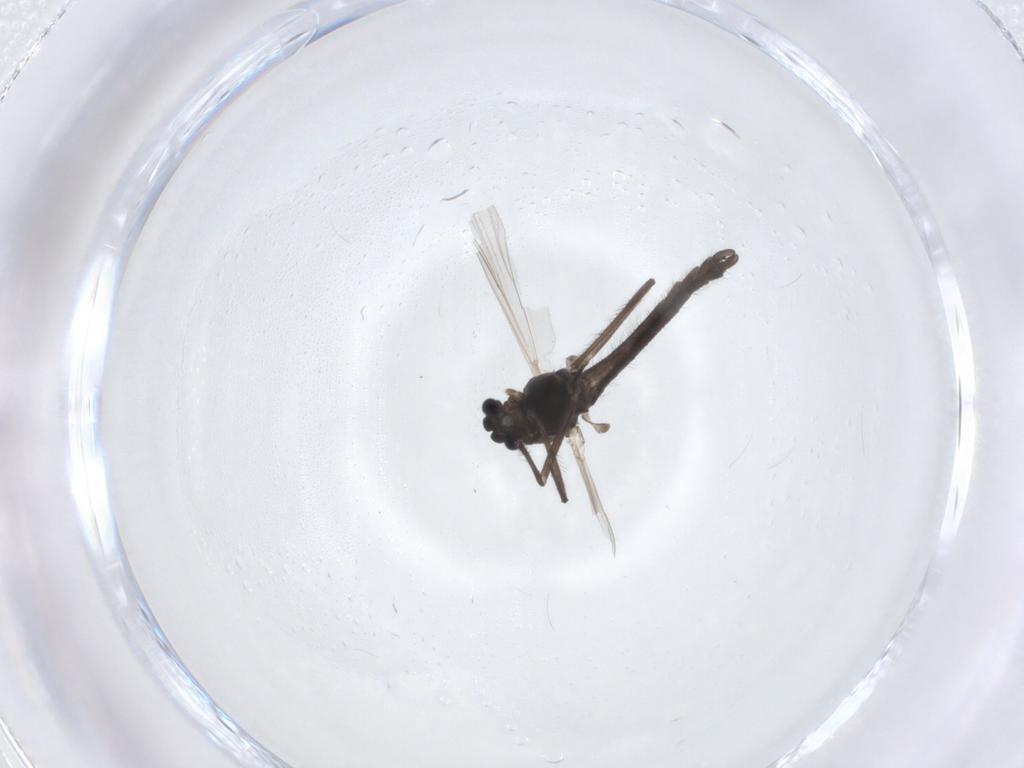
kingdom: Animalia
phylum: Arthropoda
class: Insecta
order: Diptera
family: Chironomidae
